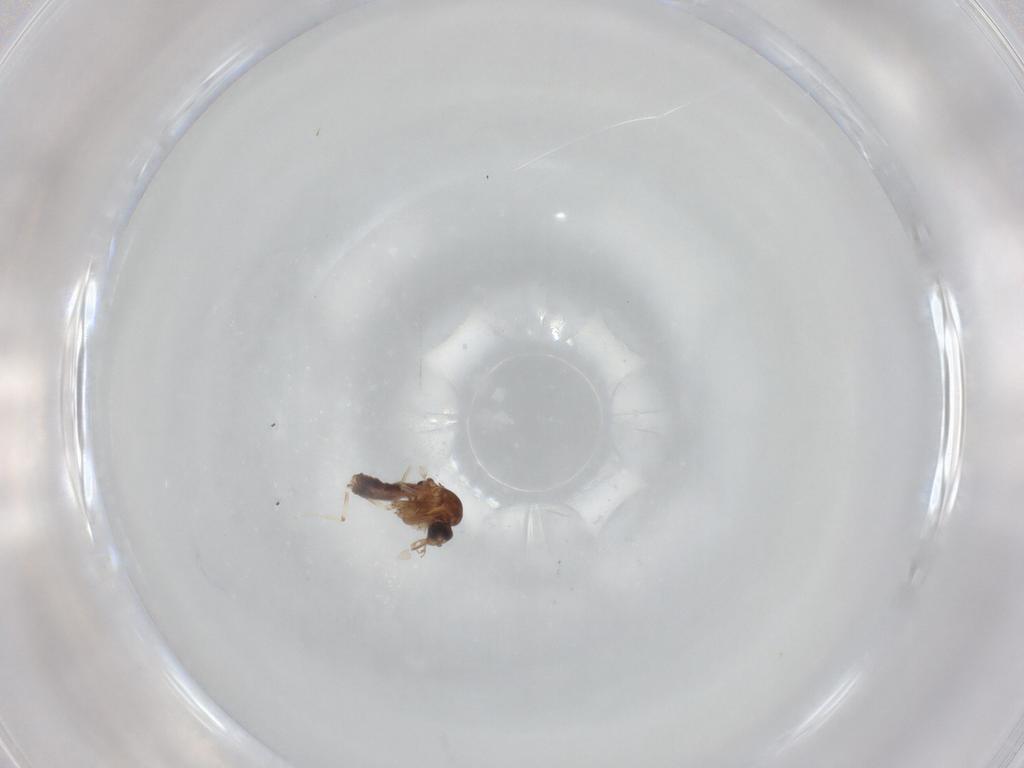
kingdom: Animalia
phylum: Arthropoda
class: Insecta
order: Diptera
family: Ceratopogonidae
